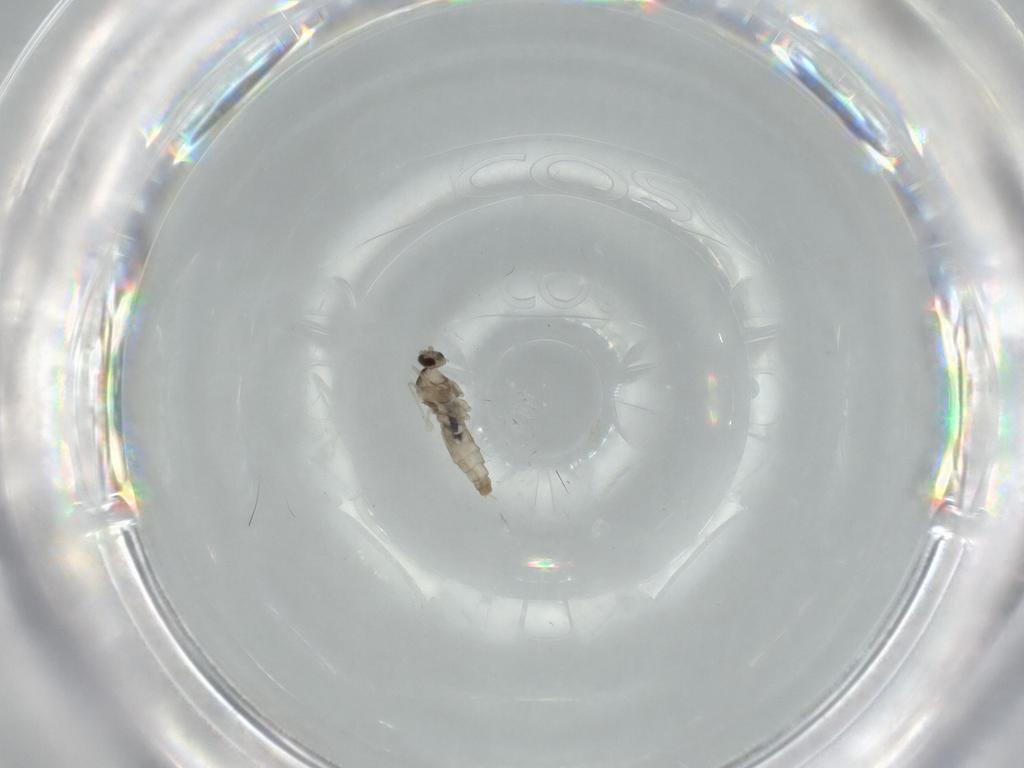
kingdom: Animalia
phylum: Arthropoda
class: Insecta
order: Diptera
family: Cecidomyiidae
